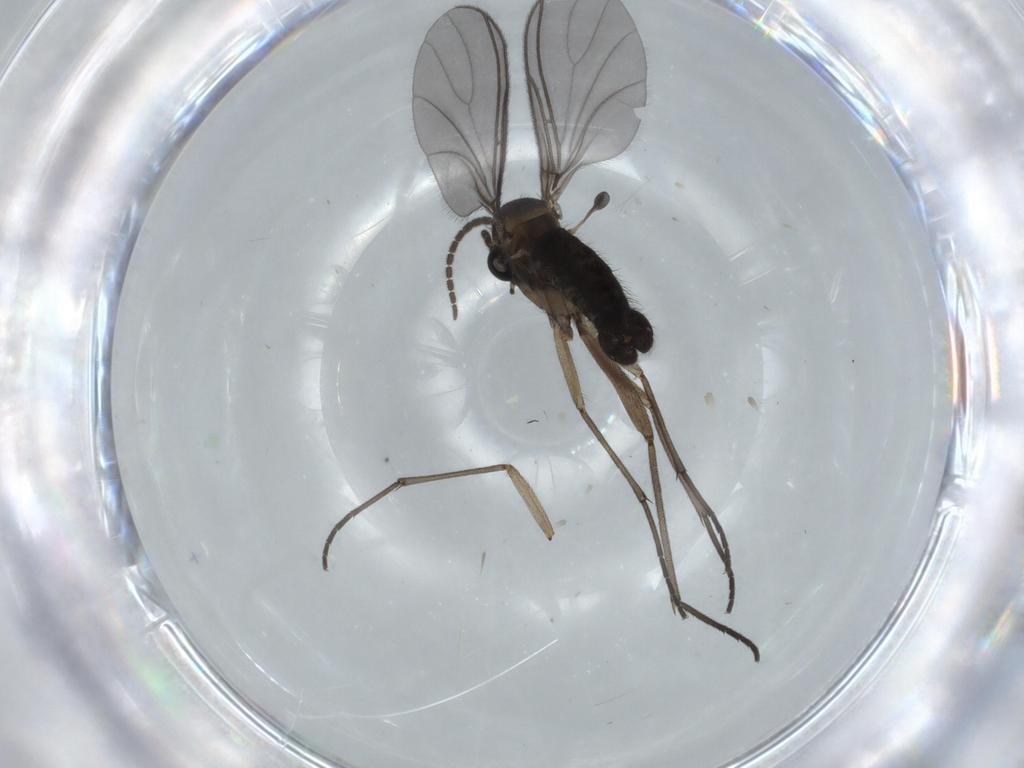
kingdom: Animalia
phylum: Arthropoda
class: Insecta
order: Diptera
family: Sciaridae
